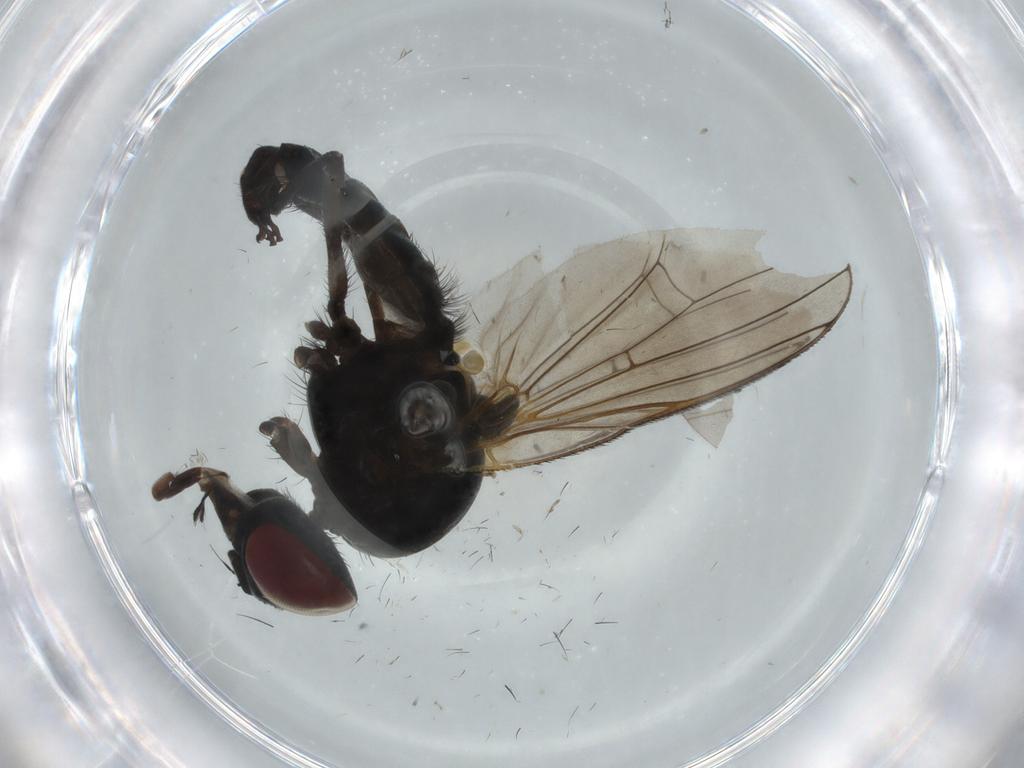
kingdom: Animalia
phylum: Arthropoda
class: Insecta
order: Diptera
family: Fannia
